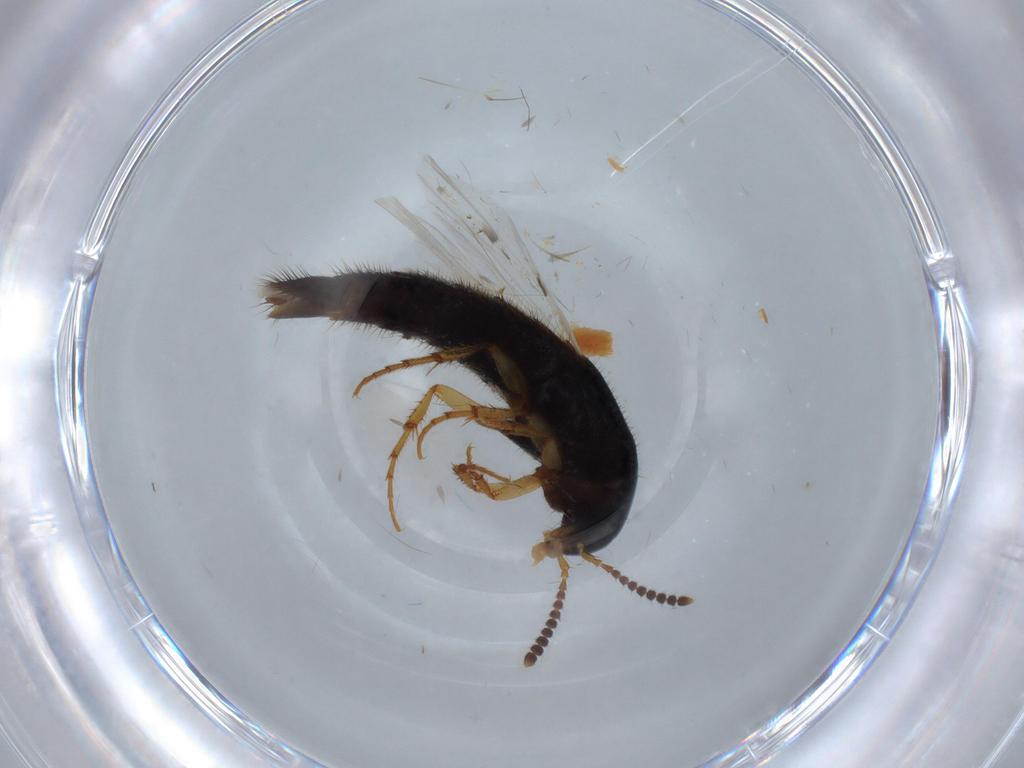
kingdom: Animalia
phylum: Arthropoda
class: Insecta
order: Coleoptera
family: Staphylinidae
